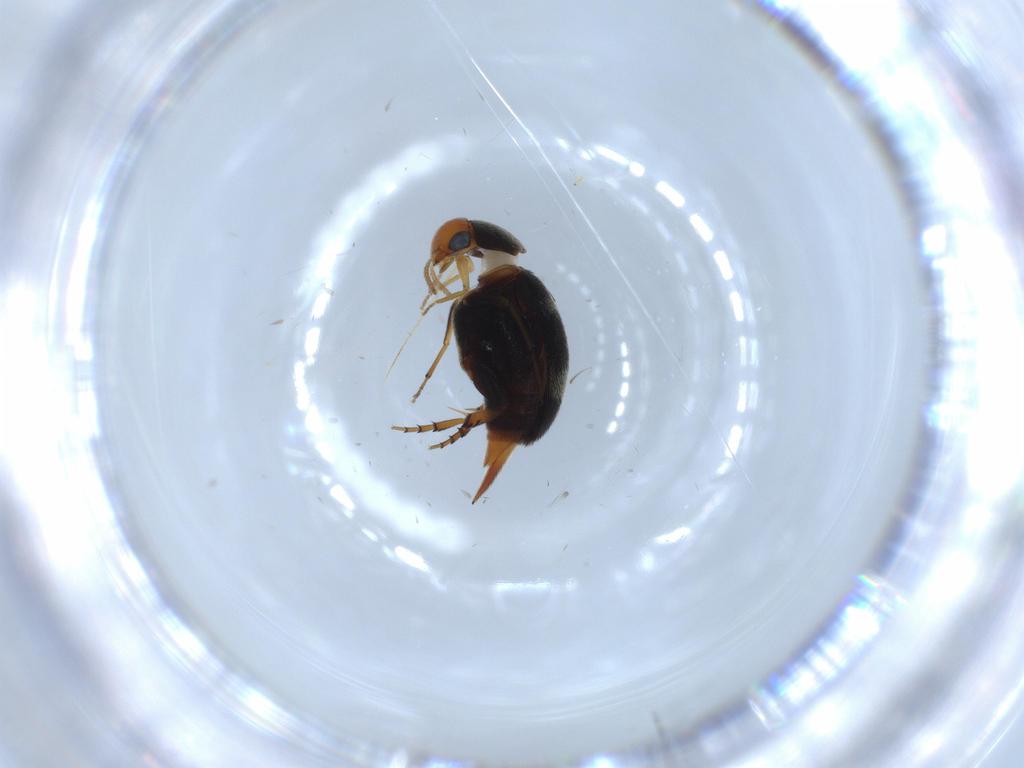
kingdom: Animalia
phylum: Arthropoda
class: Insecta
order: Coleoptera
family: Mordellidae
